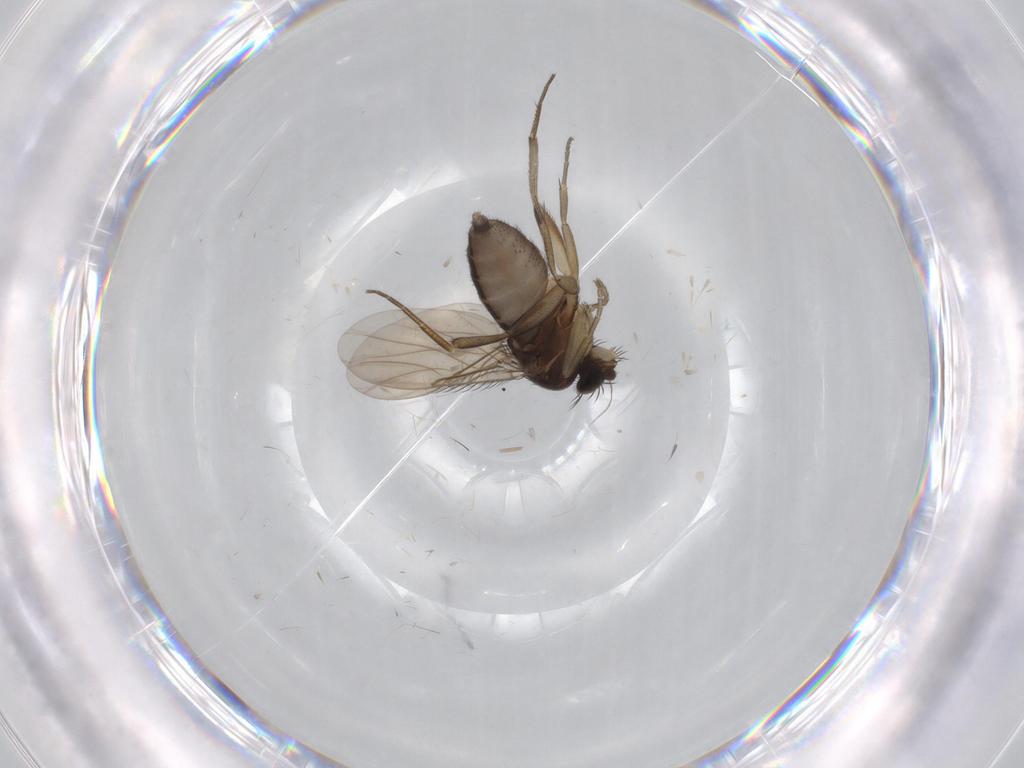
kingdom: Animalia
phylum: Arthropoda
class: Insecta
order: Diptera
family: Phoridae
